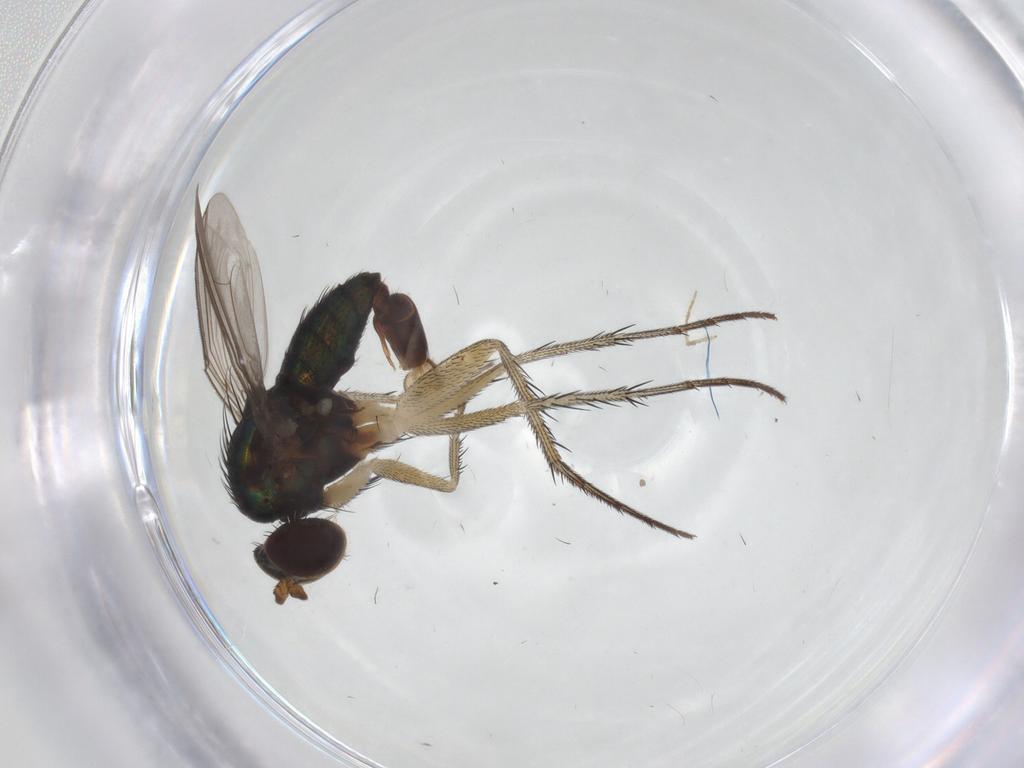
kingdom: Animalia
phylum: Arthropoda
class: Insecta
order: Diptera
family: Dolichopodidae
